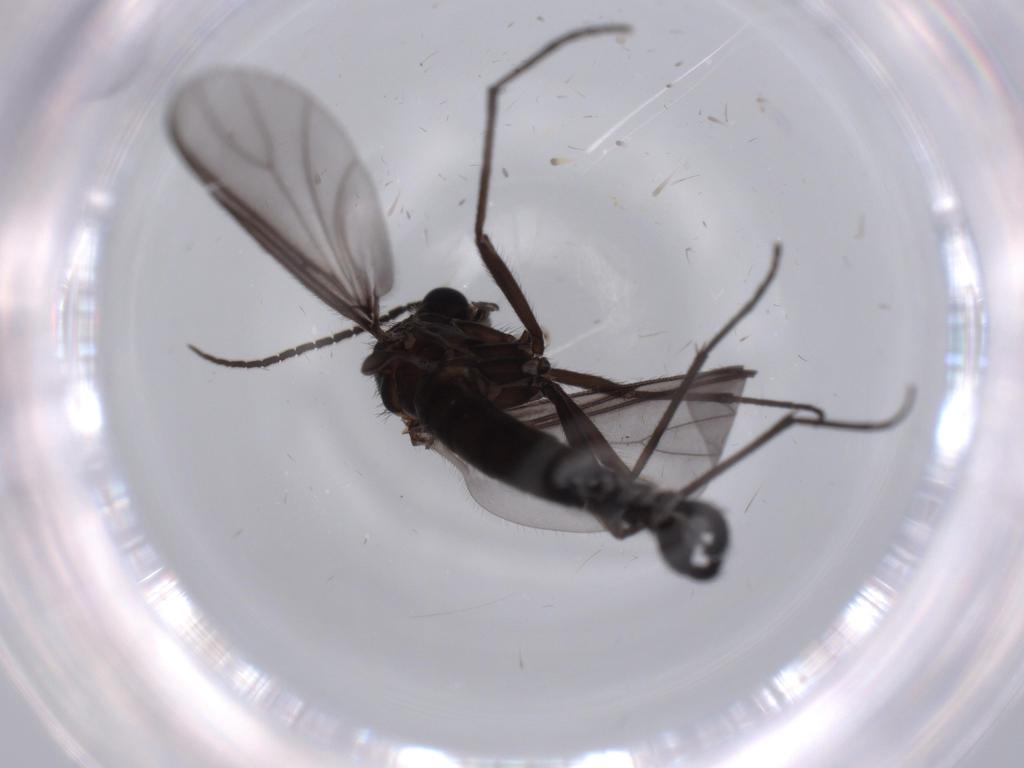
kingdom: Animalia
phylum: Arthropoda
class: Insecta
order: Diptera
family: Cecidomyiidae
